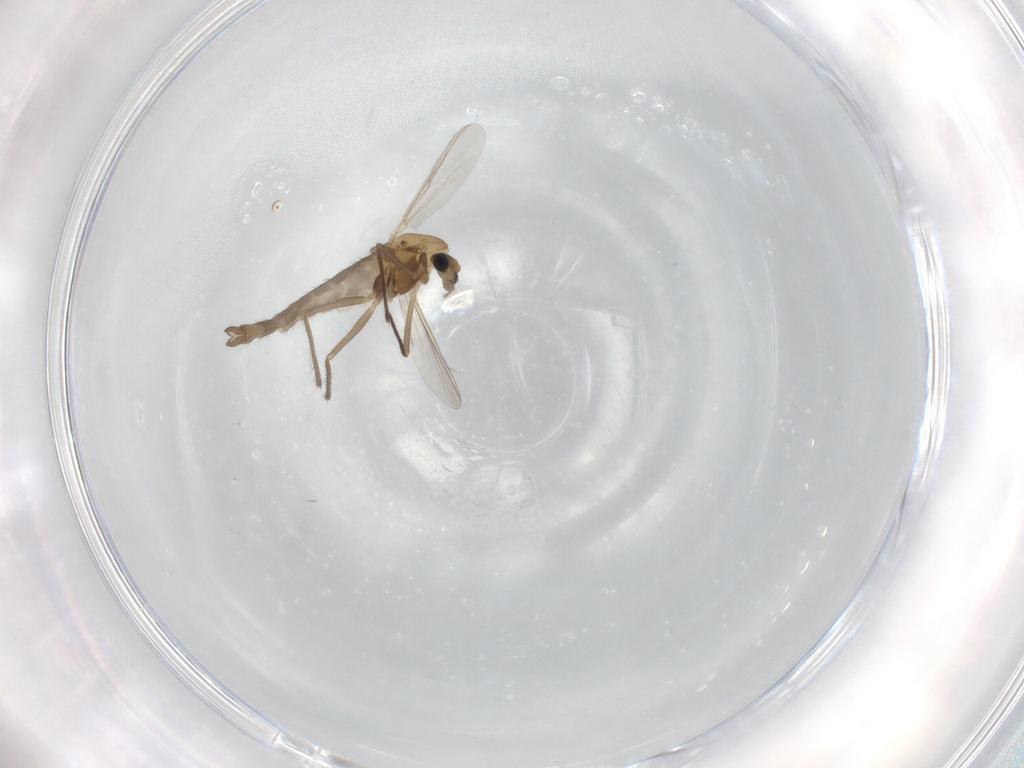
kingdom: Animalia
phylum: Arthropoda
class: Insecta
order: Diptera
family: Chironomidae
